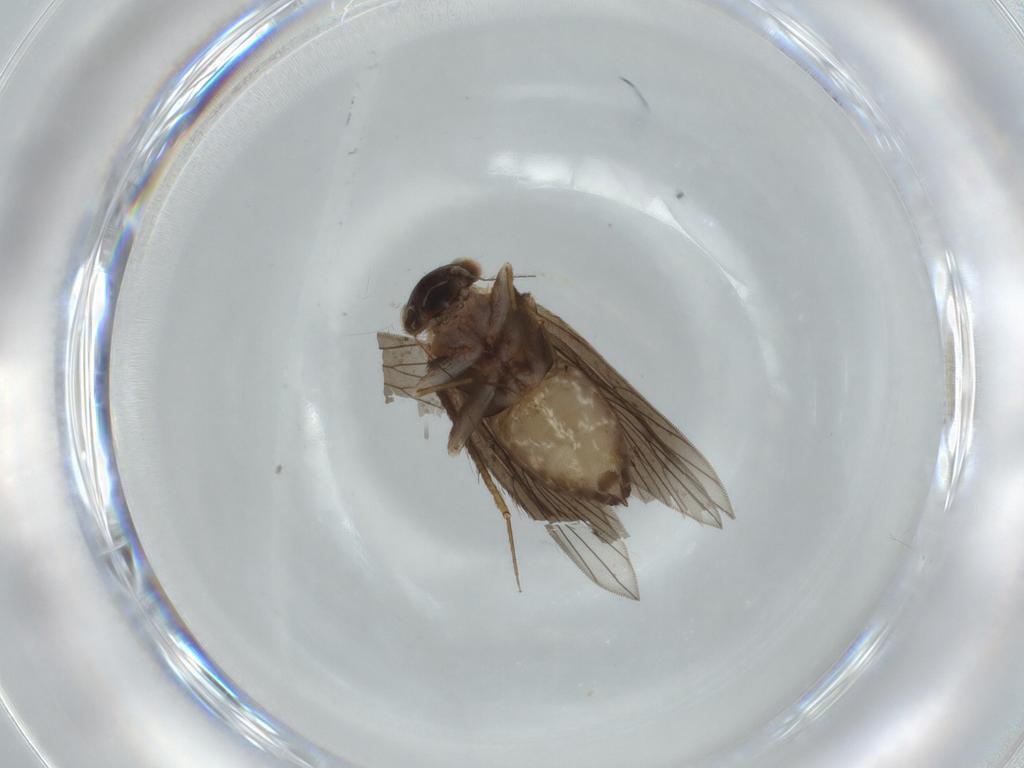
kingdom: Animalia
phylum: Arthropoda
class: Insecta
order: Psocodea
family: Lepidopsocidae
